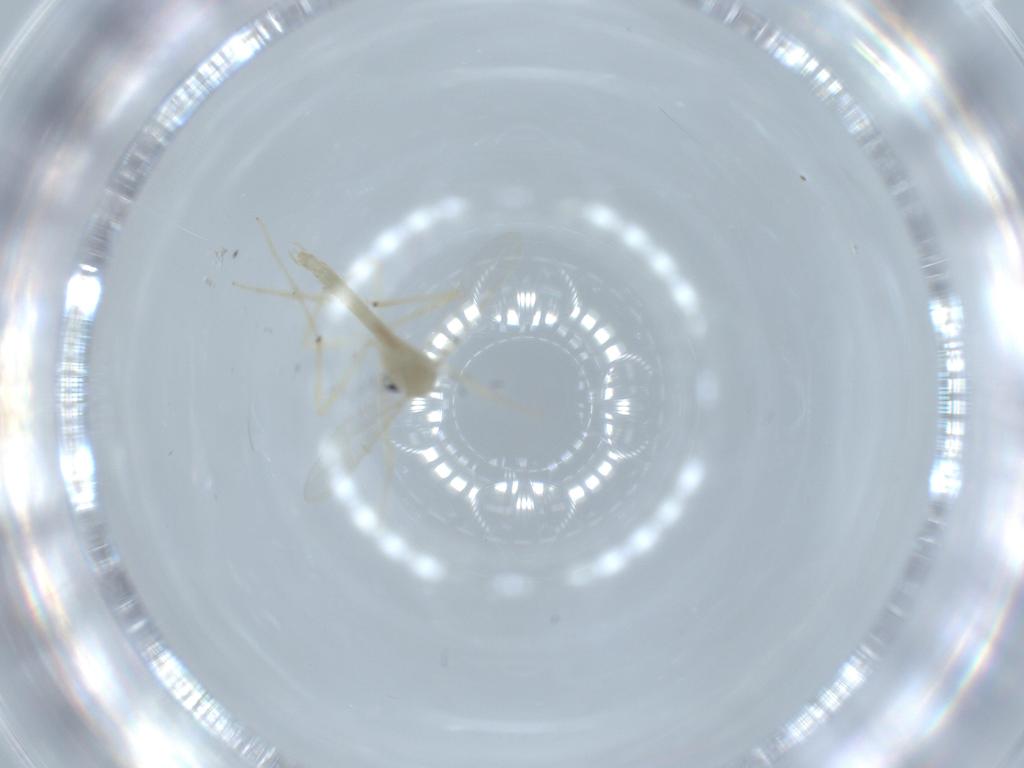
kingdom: Animalia
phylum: Arthropoda
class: Insecta
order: Diptera
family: Chironomidae
